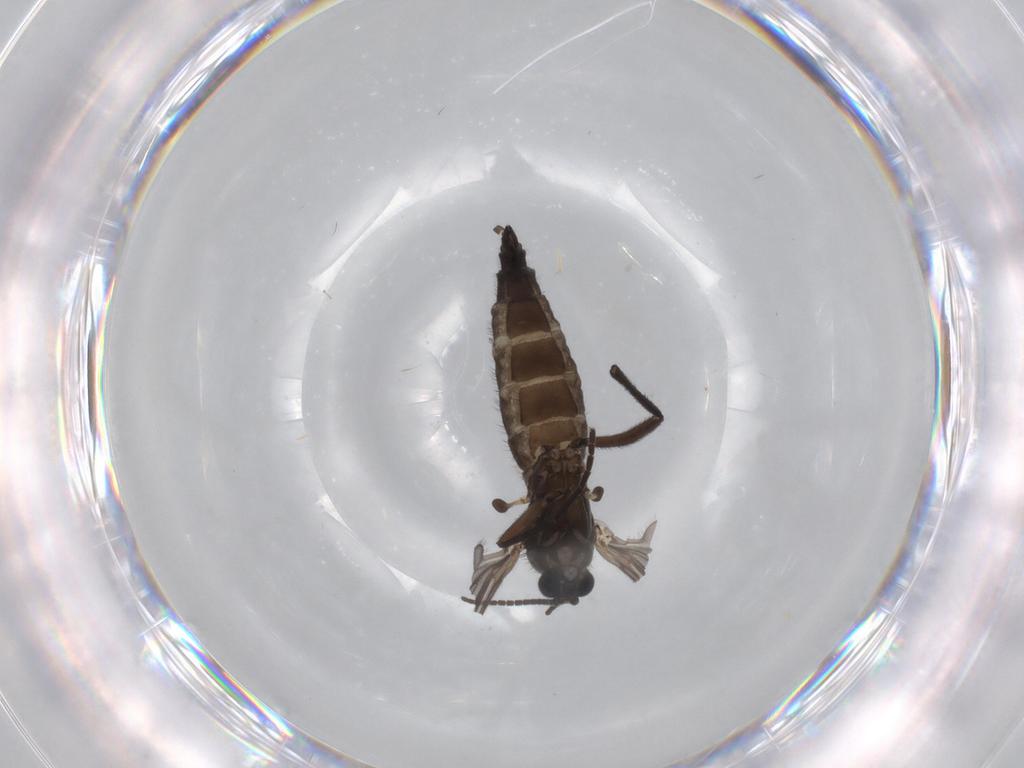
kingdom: Animalia
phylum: Arthropoda
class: Insecta
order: Diptera
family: Sciaridae
